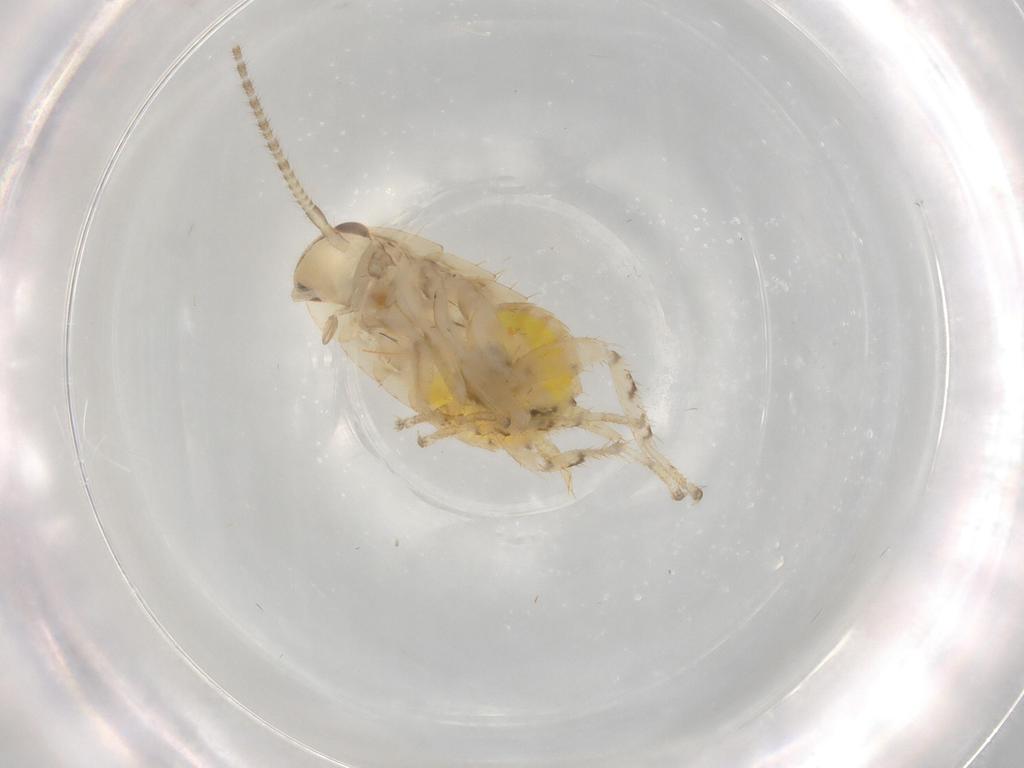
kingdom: Animalia
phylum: Arthropoda
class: Insecta
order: Blattodea
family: Ectobiidae
